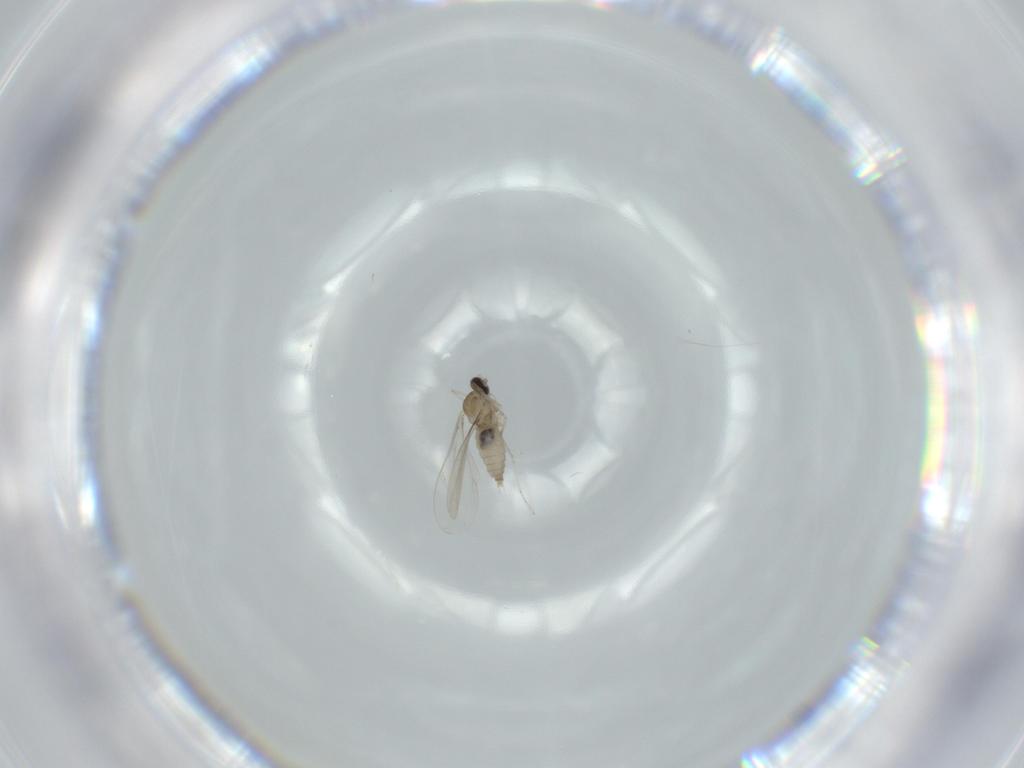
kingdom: Animalia
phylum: Arthropoda
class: Insecta
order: Diptera
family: Cecidomyiidae
